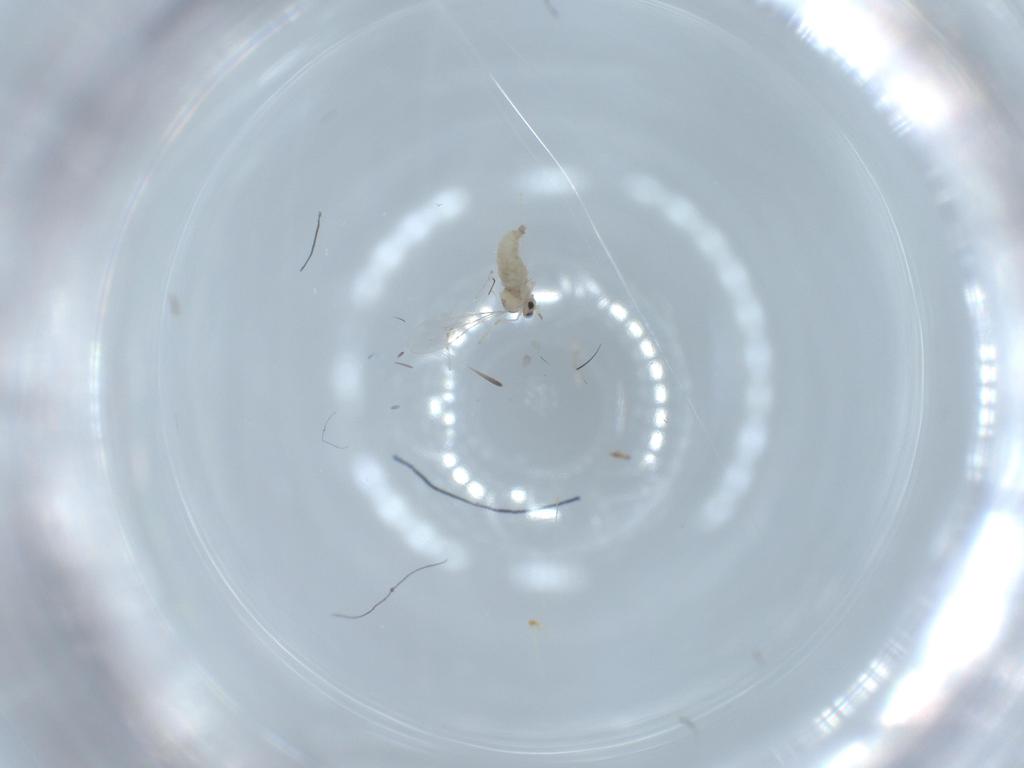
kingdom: Animalia
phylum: Arthropoda
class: Insecta
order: Diptera
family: Cecidomyiidae
